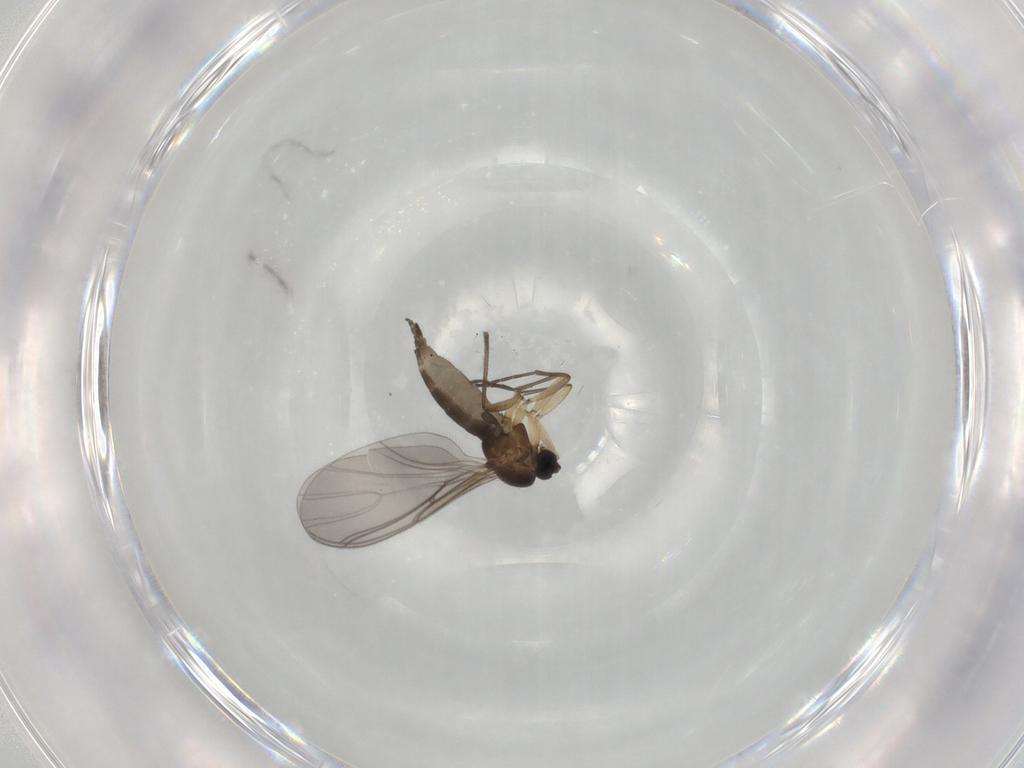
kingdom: Animalia
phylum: Arthropoda
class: Insecta
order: Diptera
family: Sciaridae
